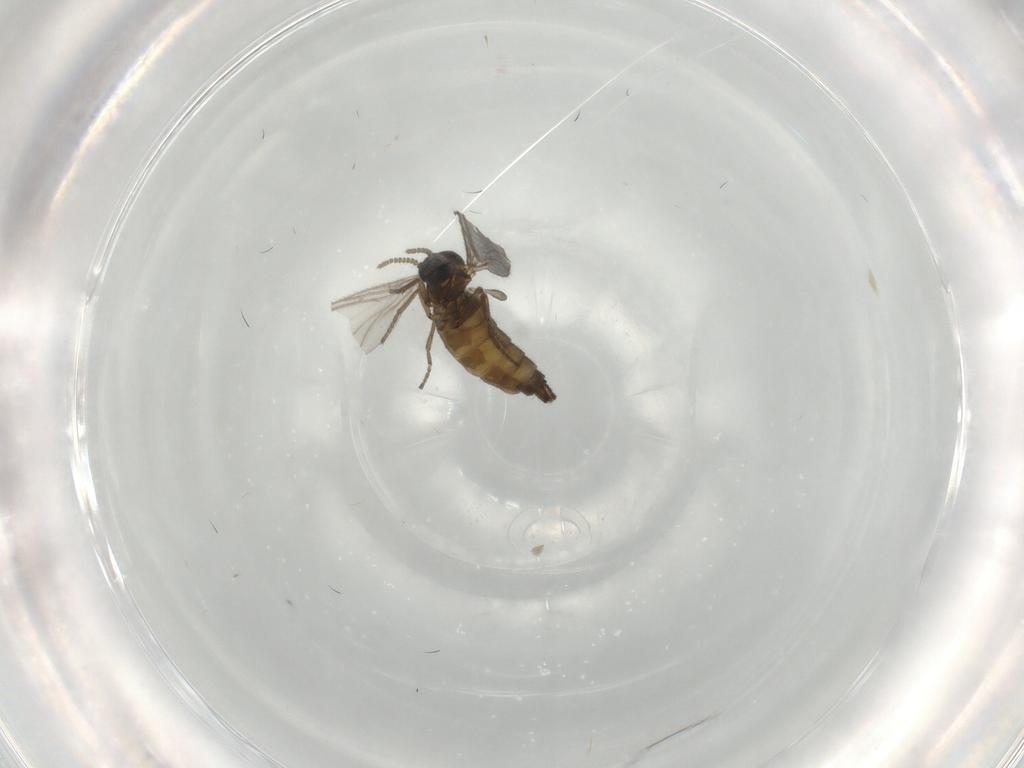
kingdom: Animalia
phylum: Arthropoda
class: Insecta
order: Diptera
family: Sciaridae
